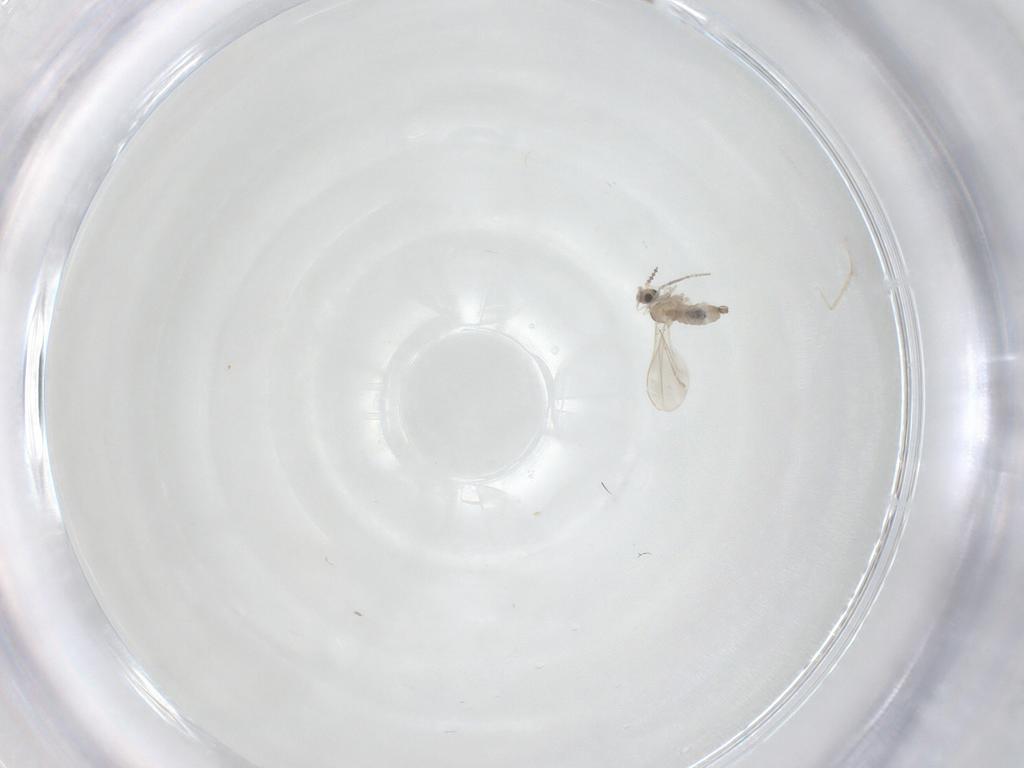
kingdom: Animalia
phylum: Arthropoda
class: Insecta
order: Diptera
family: Cecidomyiidae
